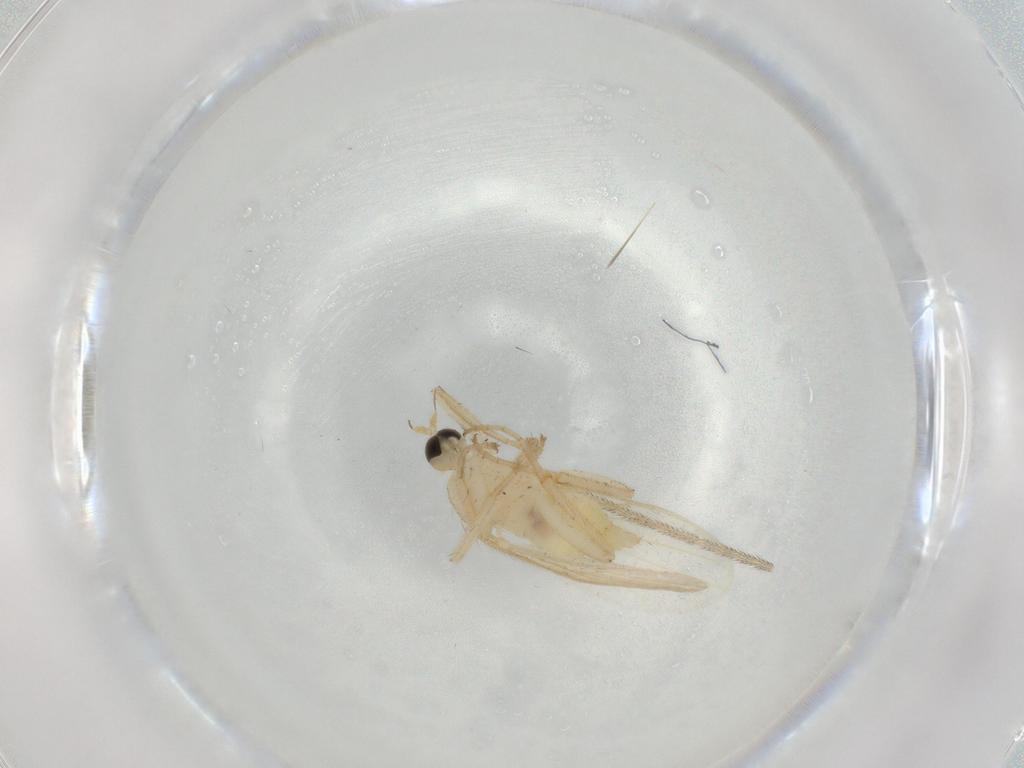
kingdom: Animalia
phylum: Arthropoda
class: Insecta
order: Diptera
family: Hybotidae
